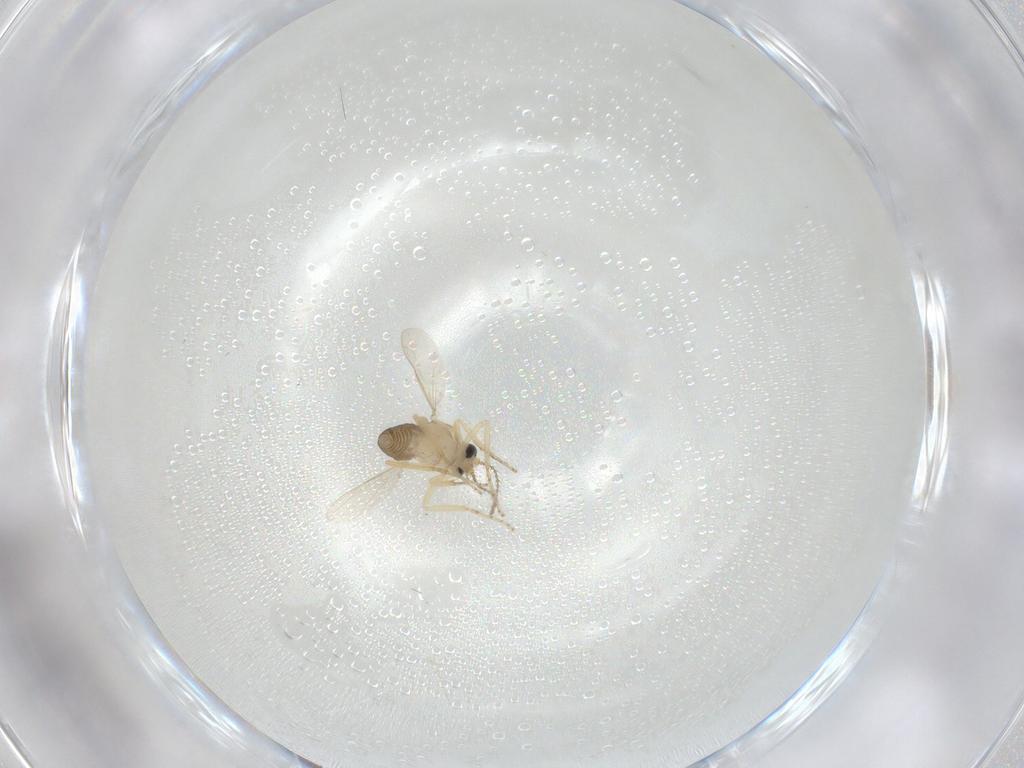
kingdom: Animalia
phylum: Arthropoda
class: Insecta
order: Diptera
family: Ceratopogonidae
